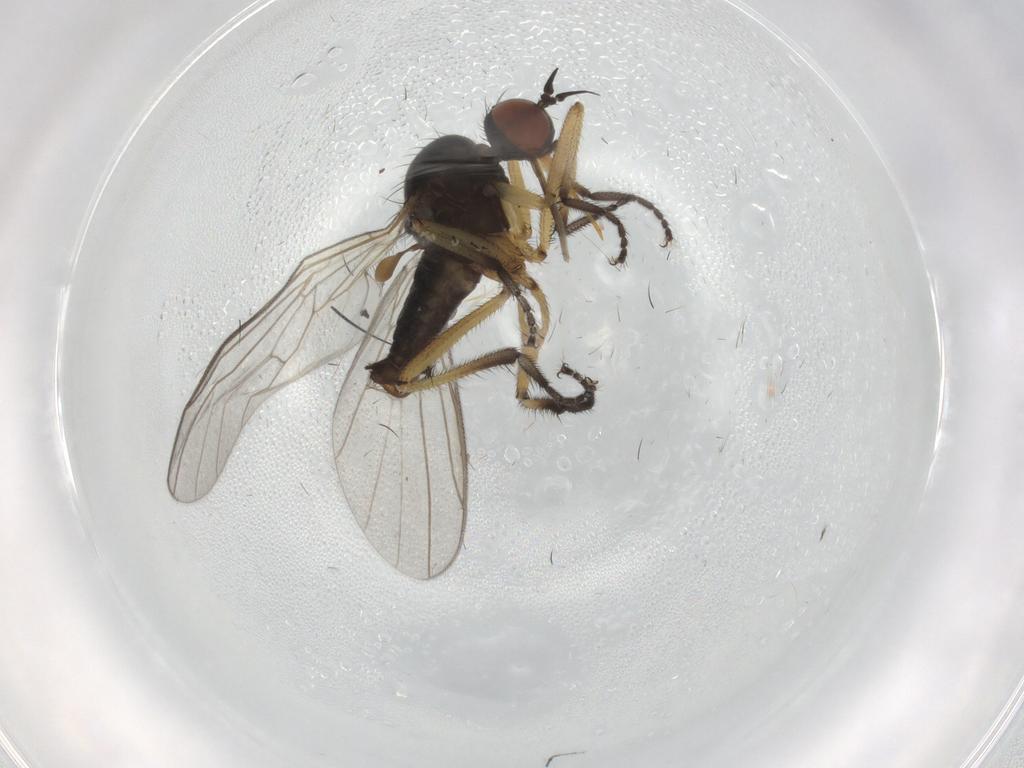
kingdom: Animalia
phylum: Arthropoda
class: Insecta
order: Diptera
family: Empididae
